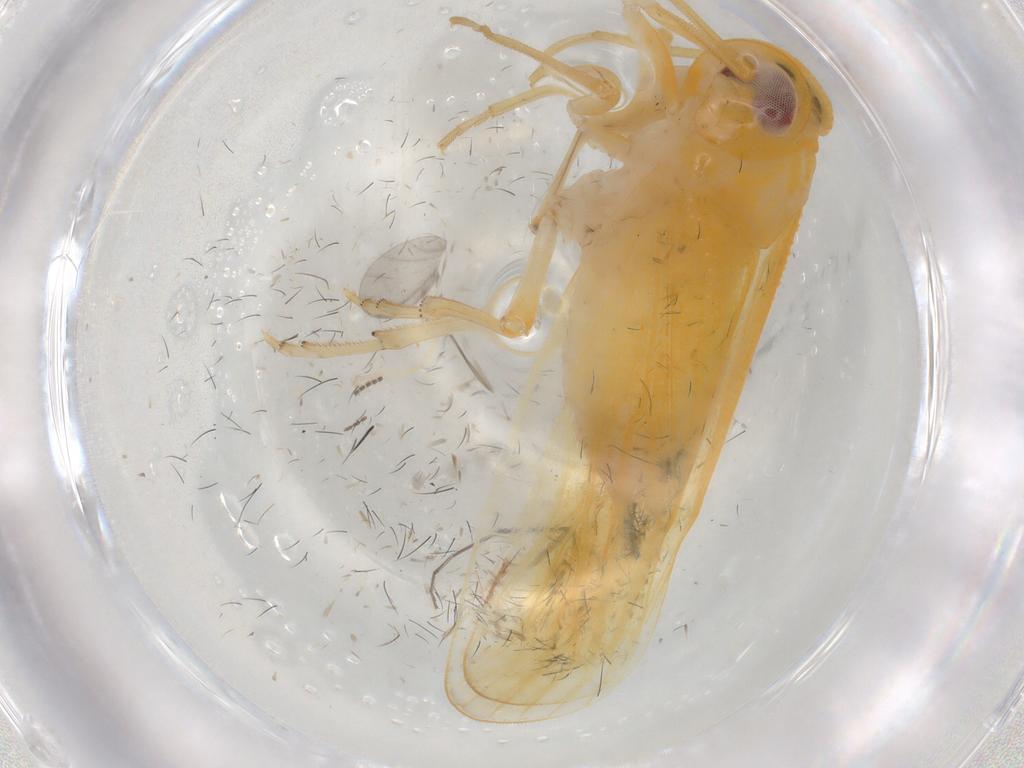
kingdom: Animalia
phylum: Arthropoda
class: Insecta
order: Hemiptera
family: Derbidae
